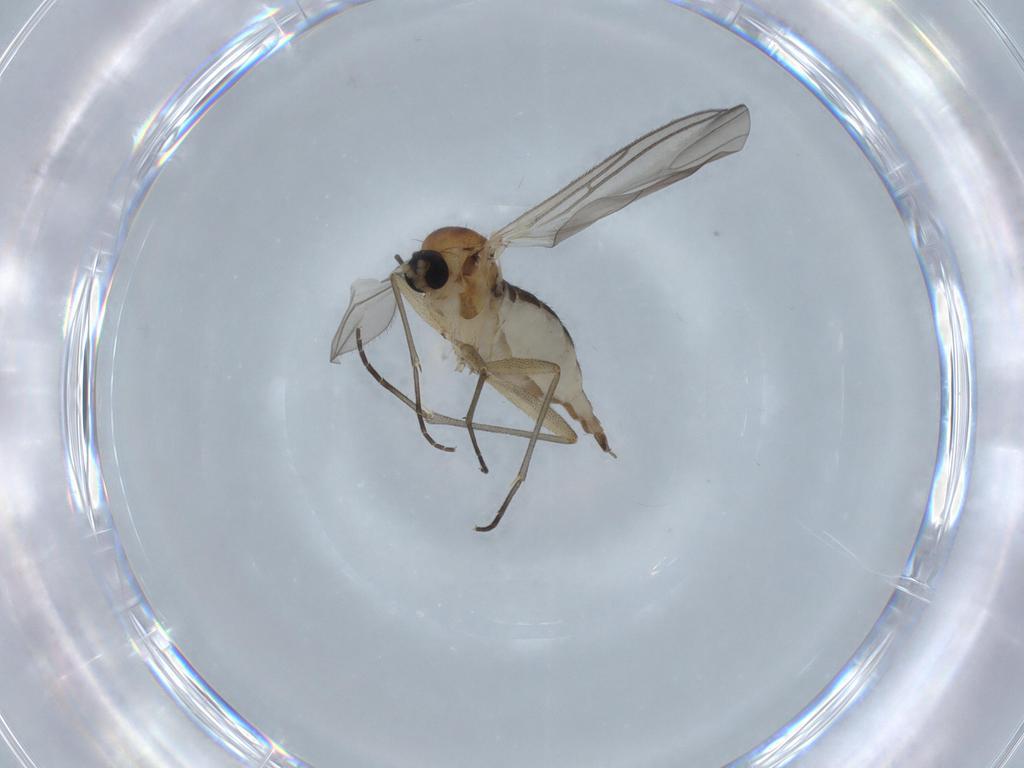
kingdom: Animalia
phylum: Arthropoda
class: Insecta
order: Diptera
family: Sciaridae
